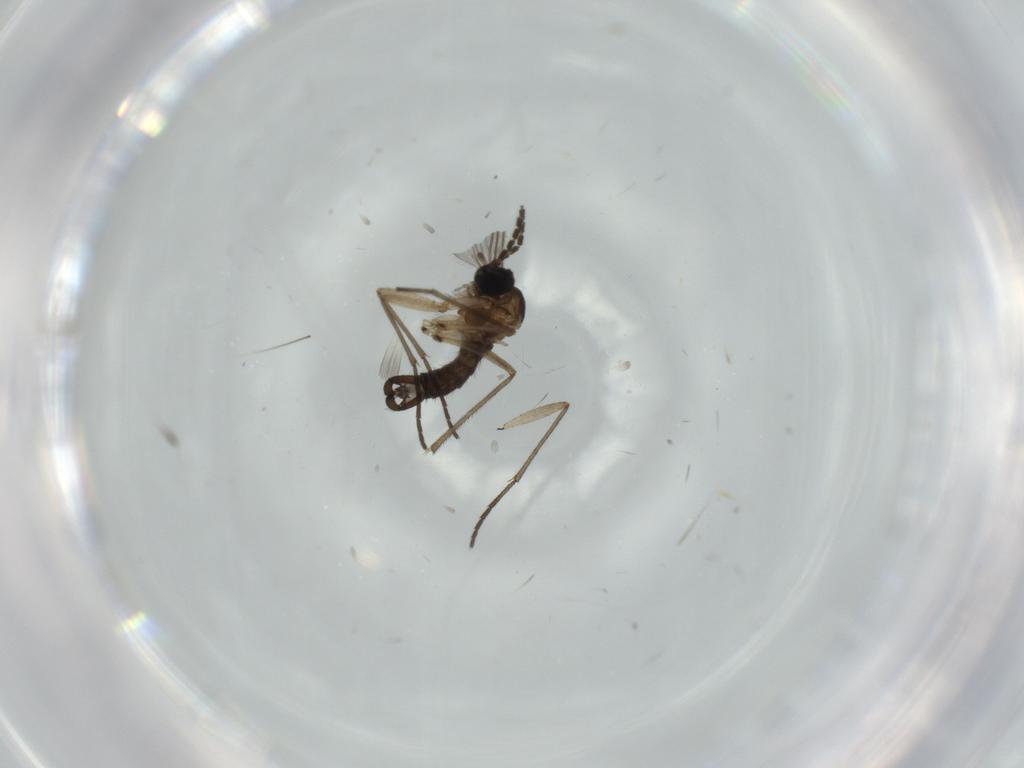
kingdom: Animalia
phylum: Arthropoda
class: Insecta
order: Diptera
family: Sciaridae
